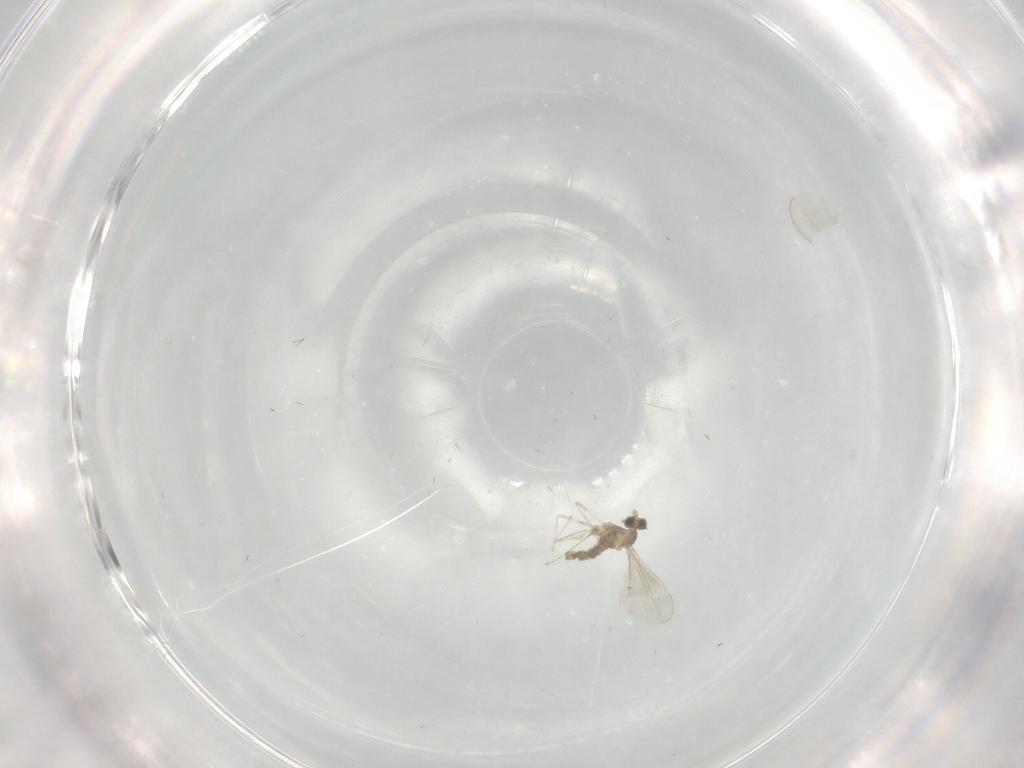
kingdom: Animalia
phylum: Arthropoda
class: Insecta
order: Diptera
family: Cecidomyiidae
